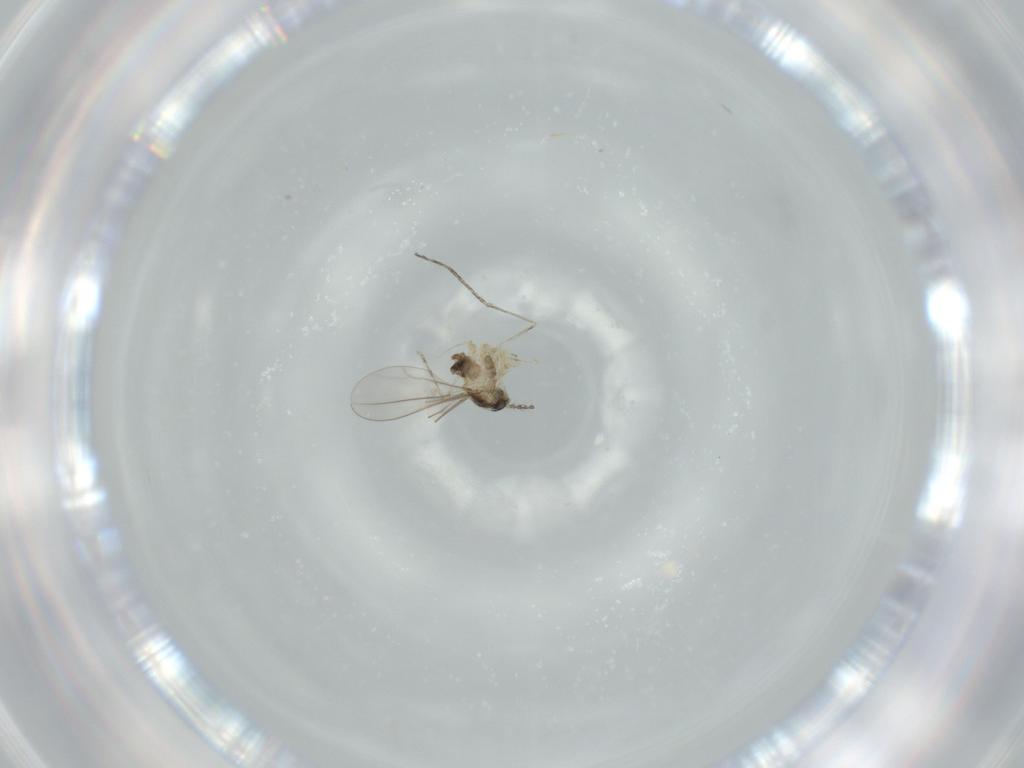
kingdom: Animalia
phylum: Arthropoda
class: Insecta
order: Diptera
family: Cecidomyiidae
